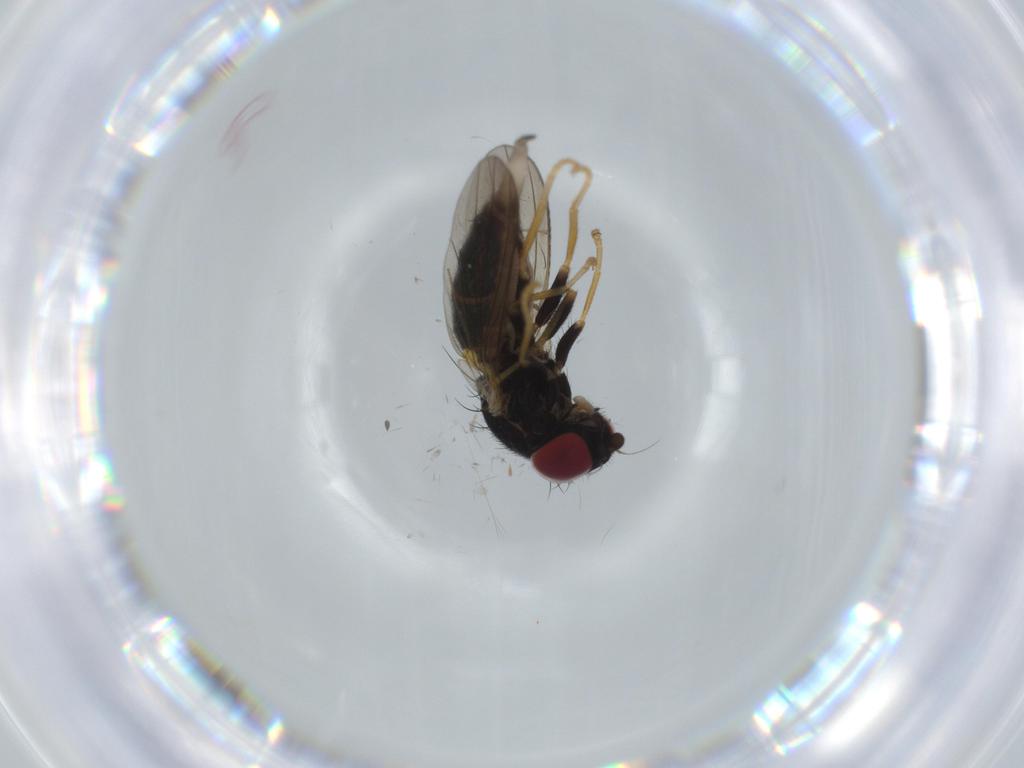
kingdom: Animalia
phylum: Arthropoda
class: Insecta
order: Diptera
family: Chamaemyiidae
